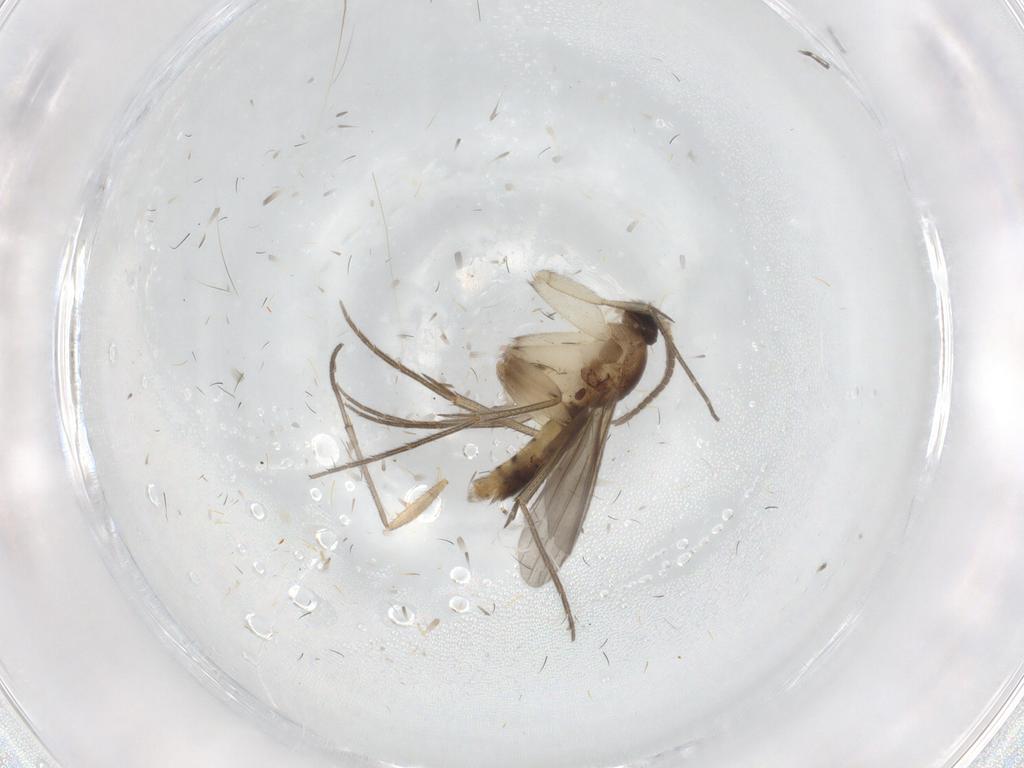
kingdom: Animalia
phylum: Arthropoda
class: Insecta
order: Diptera
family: Mycetophilidae
